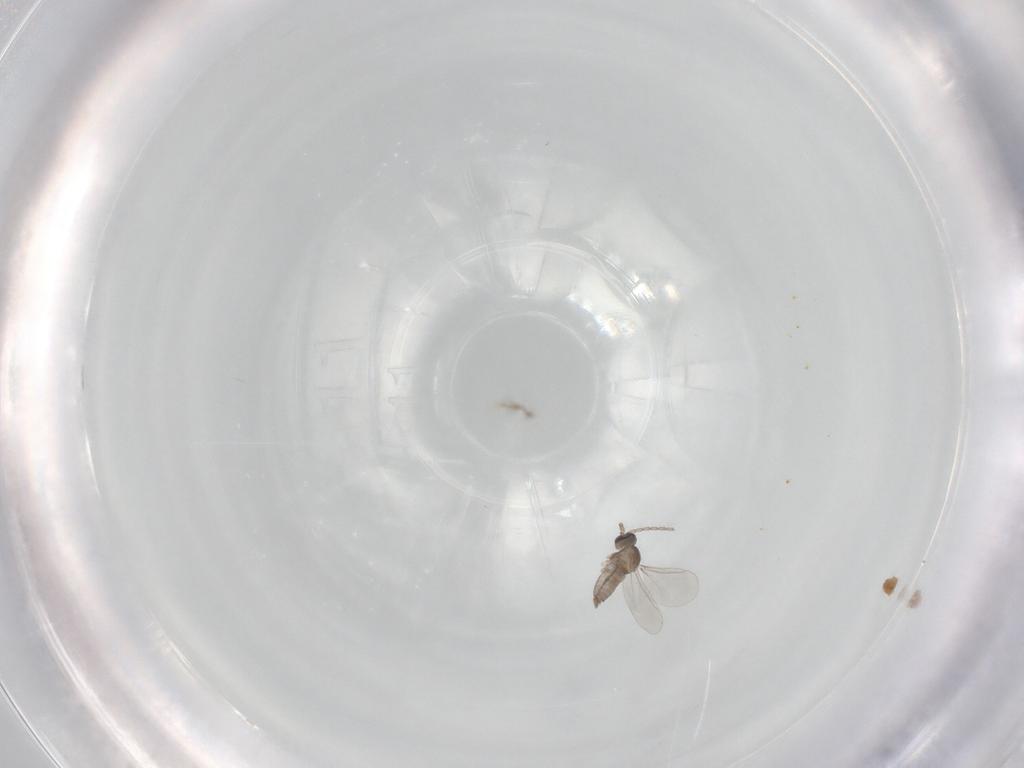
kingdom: Animalia
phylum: Arthropoda
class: Insecta
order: Diptera
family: Cecidomyiidae
